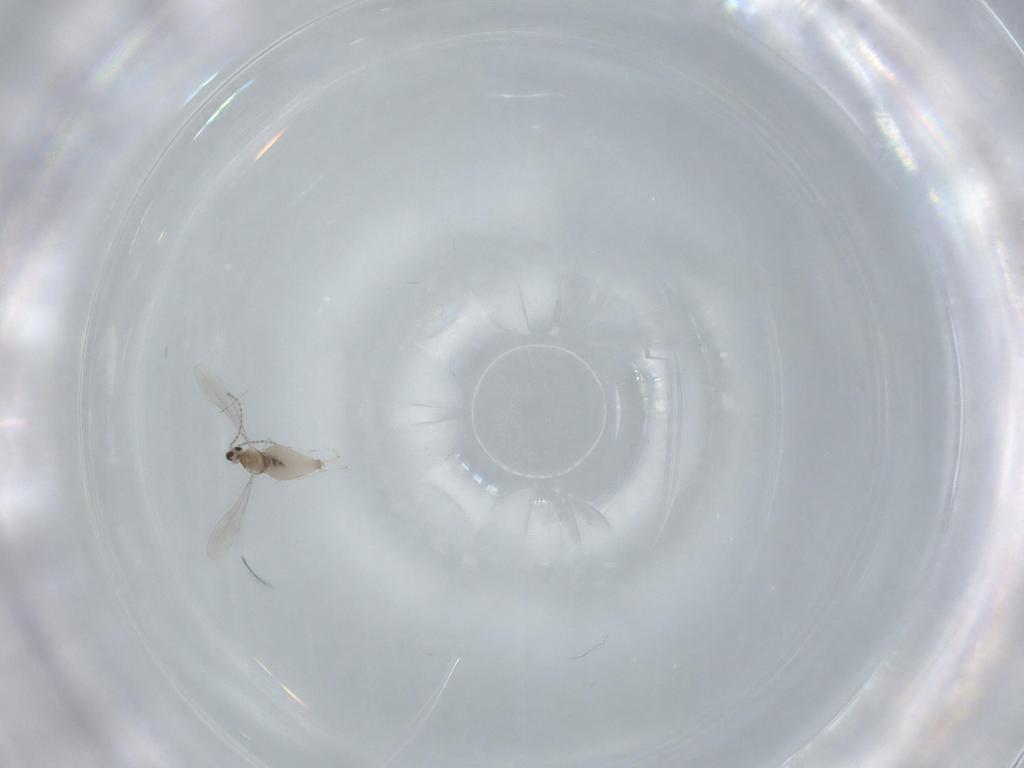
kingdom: Animalia
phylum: Arthropoda
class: Insecta
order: Diptera
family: Cecidomyiidae
